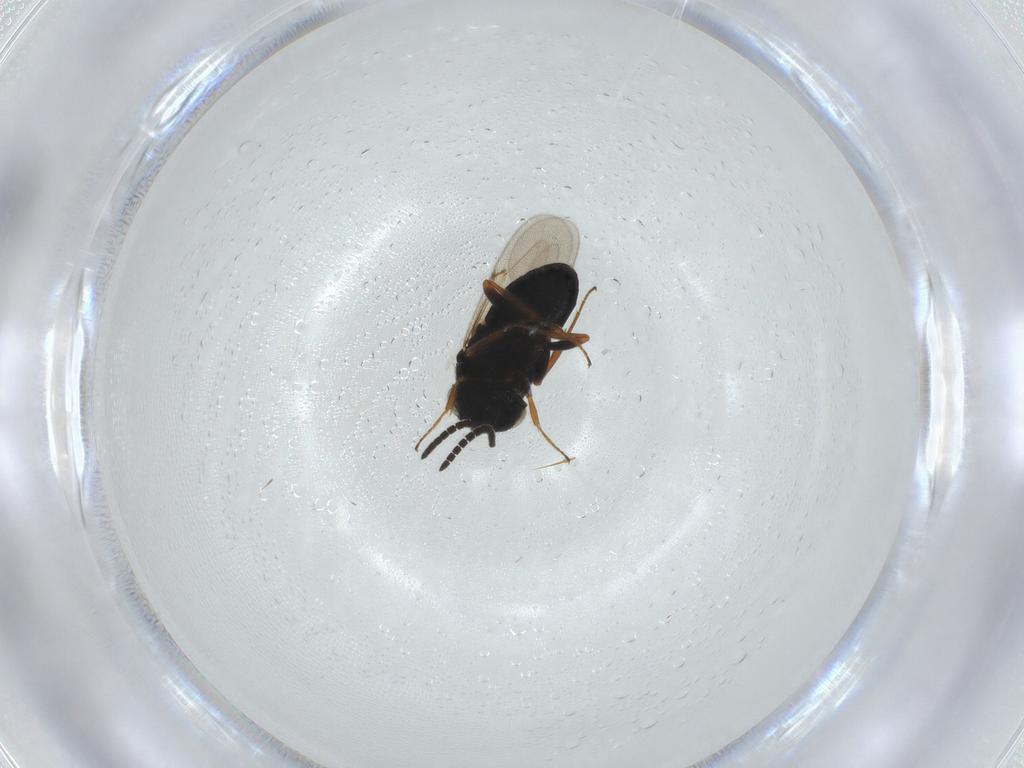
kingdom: Animalia
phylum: Arthropoda
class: Insecta
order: Hymenoptera
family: Scelionidae
